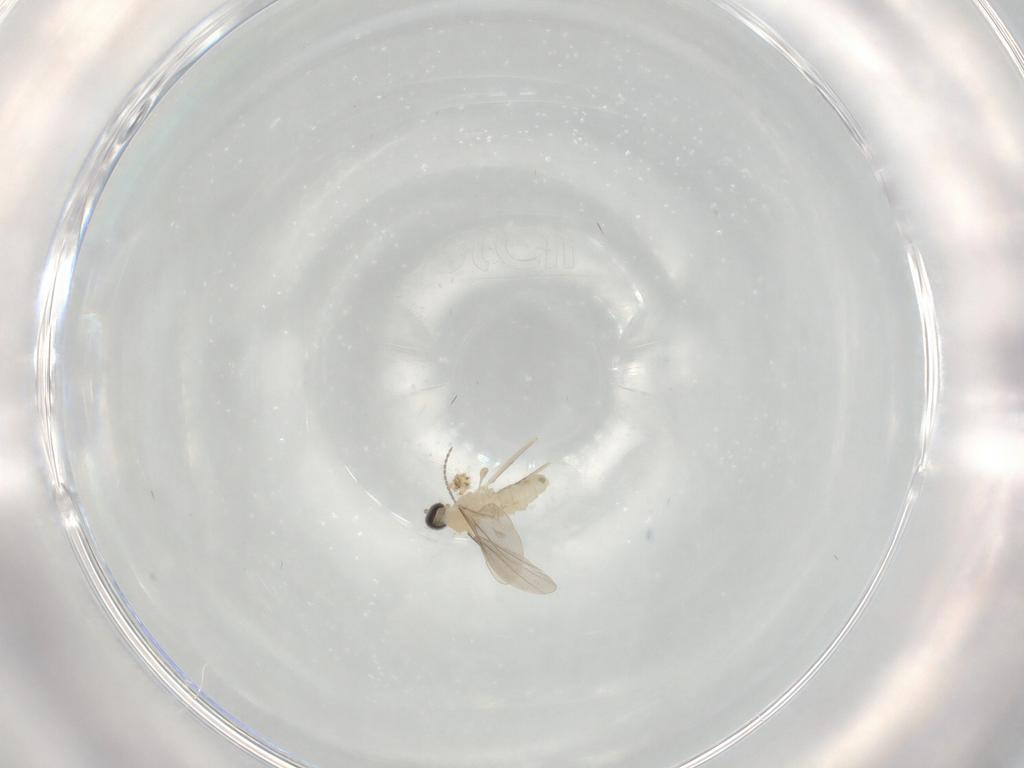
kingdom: Animalia
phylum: Arthropoda
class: Insecta
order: Diptera
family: Cecidomyiidae
